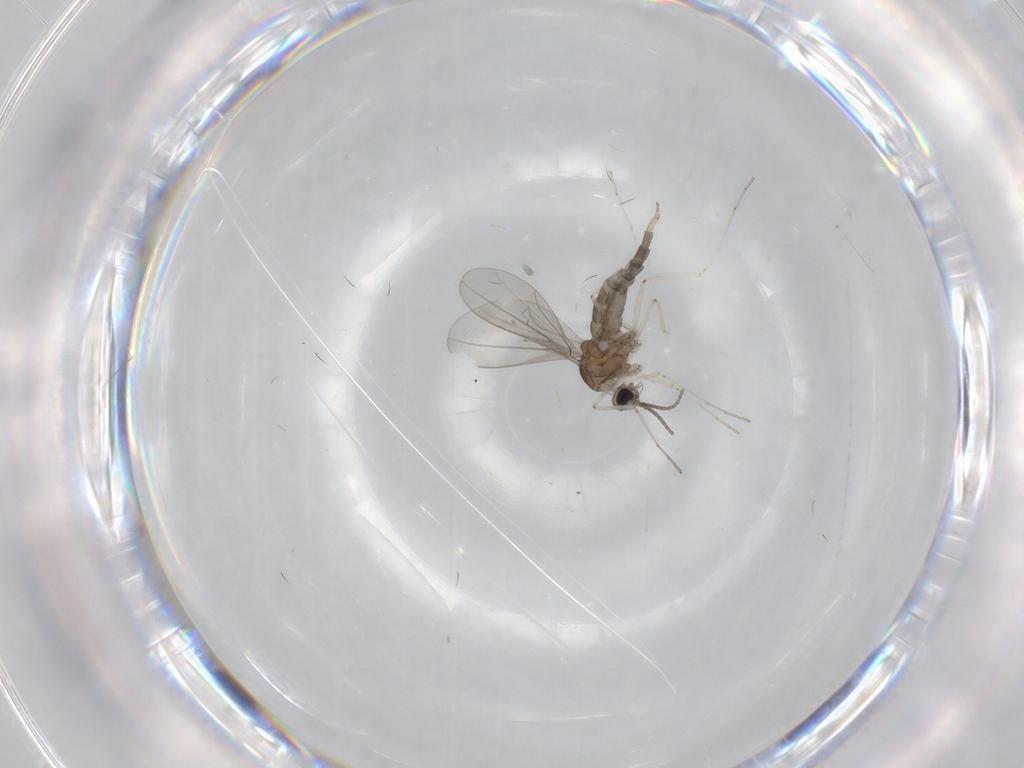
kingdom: Animalia
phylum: Arthropoda
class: Insecta
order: Diptera
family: Cecidomyiidae
